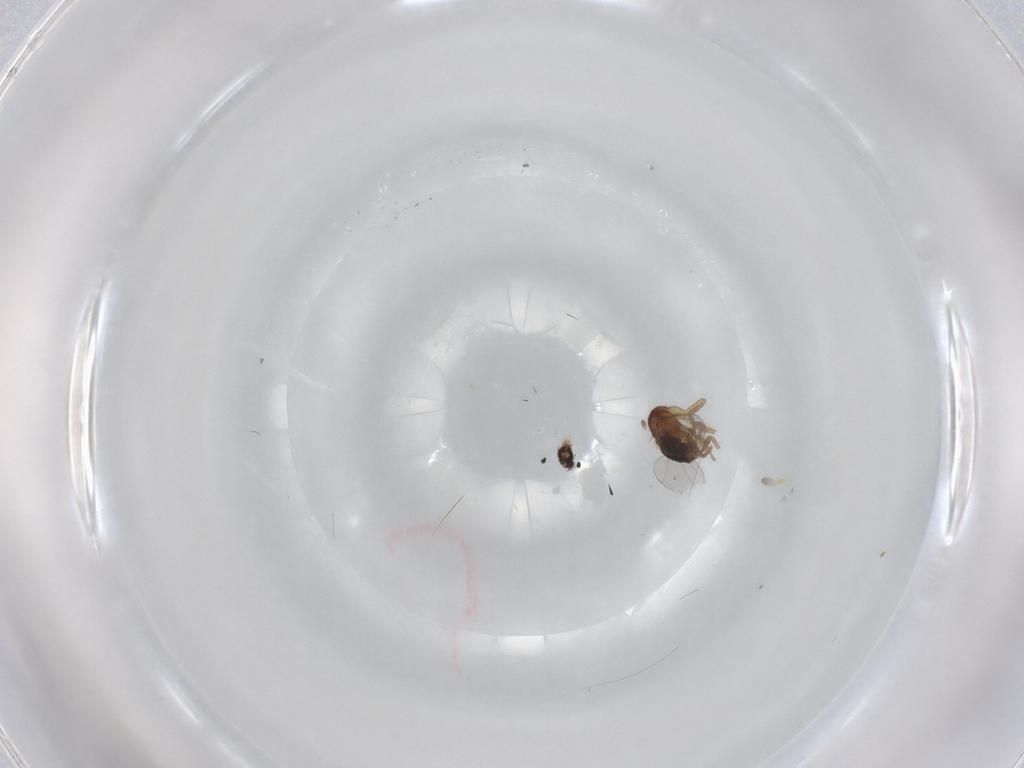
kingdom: Animalia
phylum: Arthropoda
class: Insecta
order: Diptera
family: Phoridae
